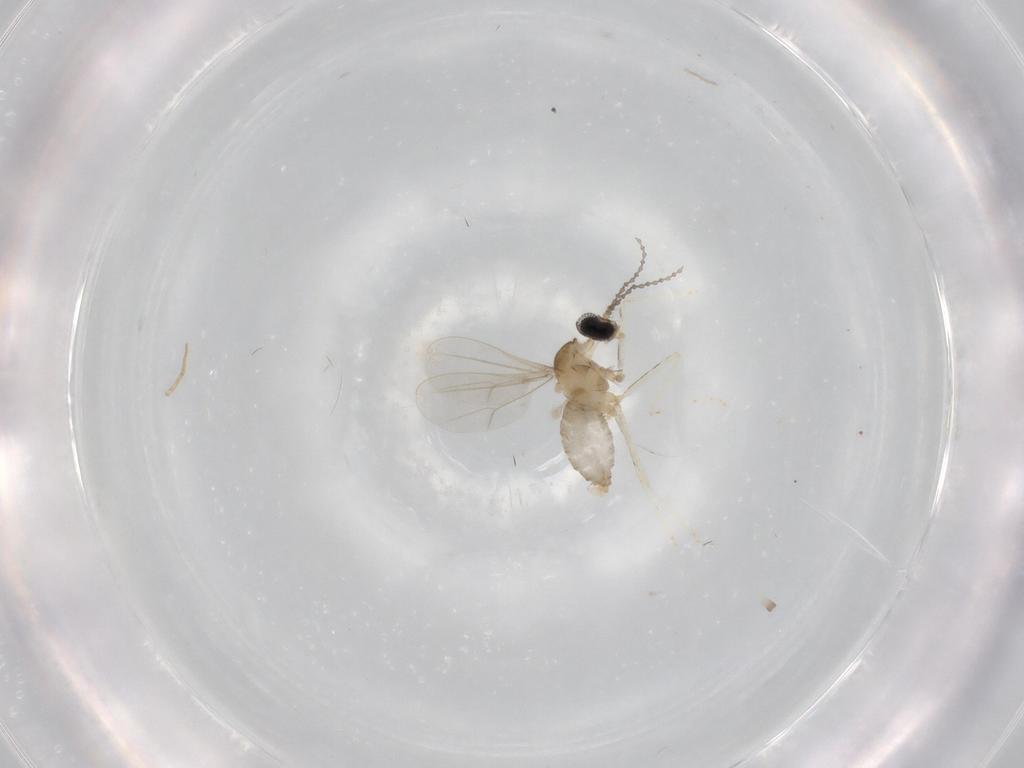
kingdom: Animalia
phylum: Arthropoda
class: Insecta
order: Diptera
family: Cecidomyiidae
